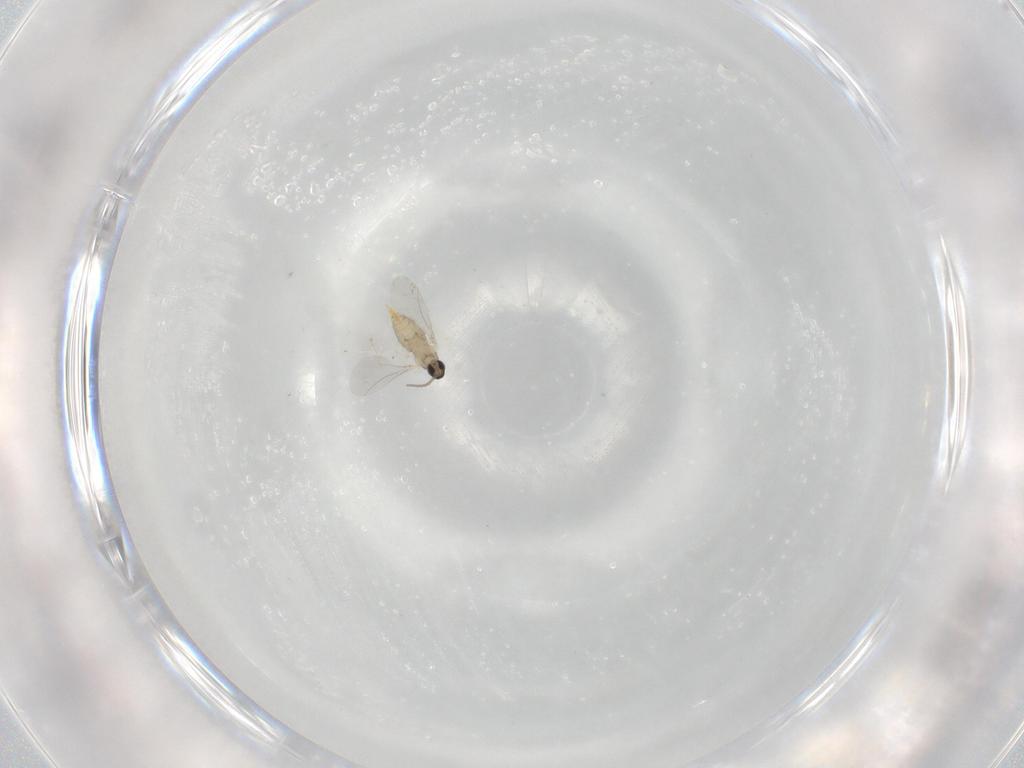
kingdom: Animalia
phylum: Arthropoda
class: Insecta
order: Diptera
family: Cecidomyiidae
